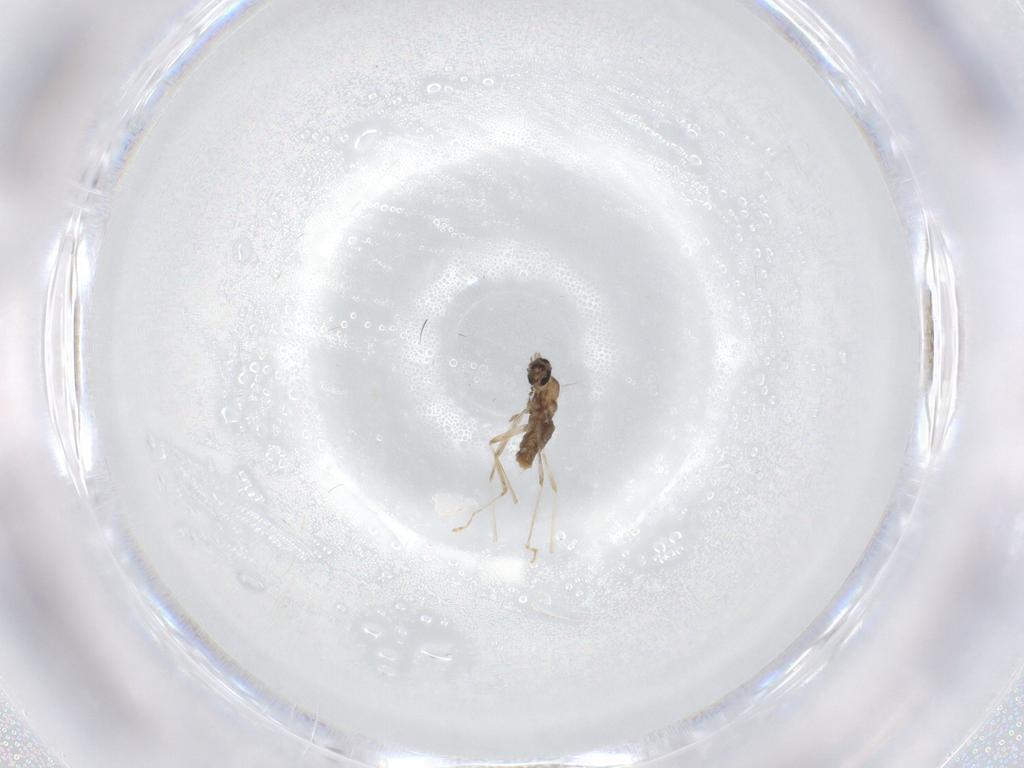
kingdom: Animalia
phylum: Arthropoda
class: Insecta
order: Diptera
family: Cecidomyiidae
